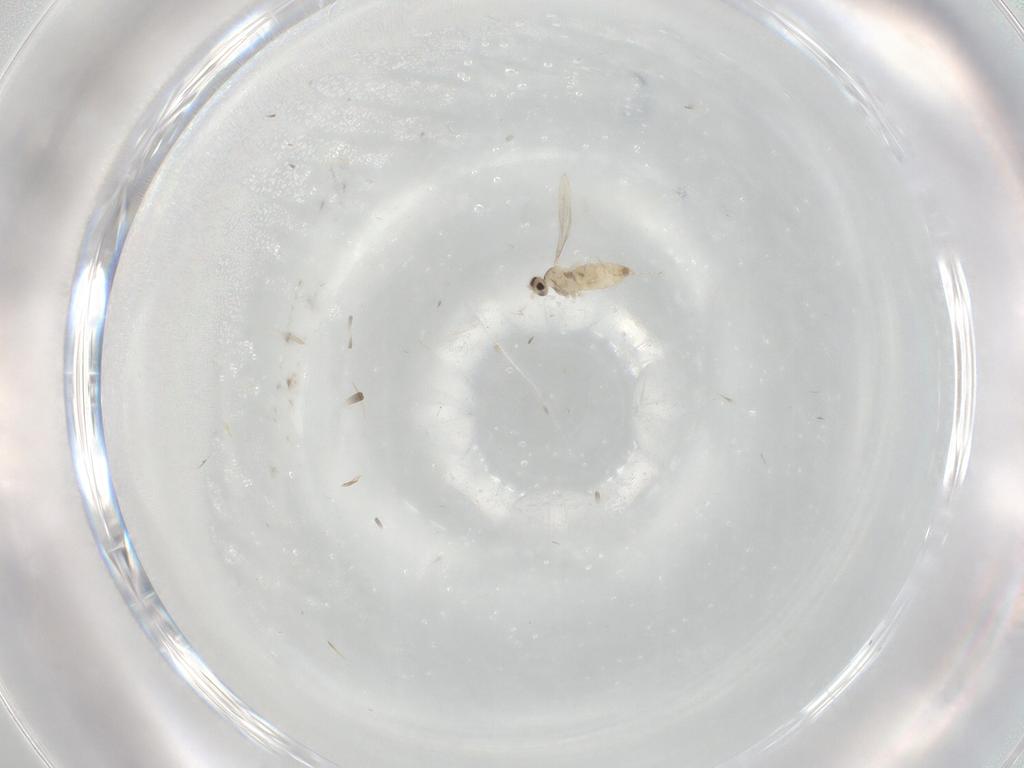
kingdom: Animalia
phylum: Arthropoda
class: Insecta
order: Diptera
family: Cecidomyiidae
